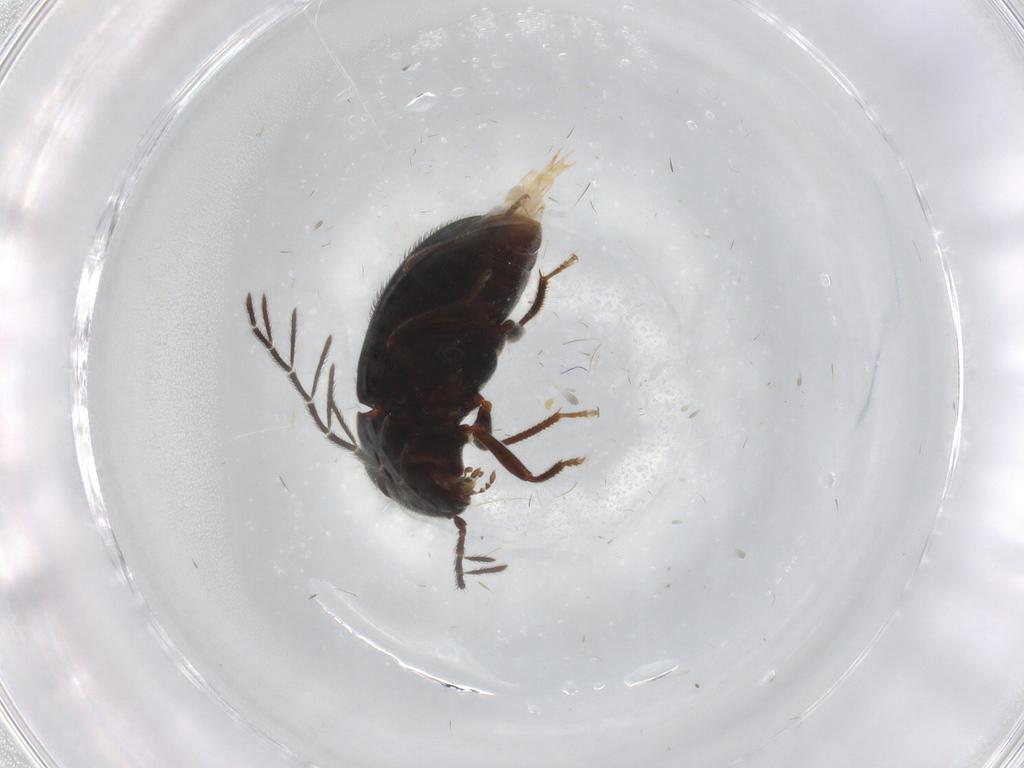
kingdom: Animalia
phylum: Arthropoda
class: Insecta
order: Coleoptera
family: Ptilodactylidae
